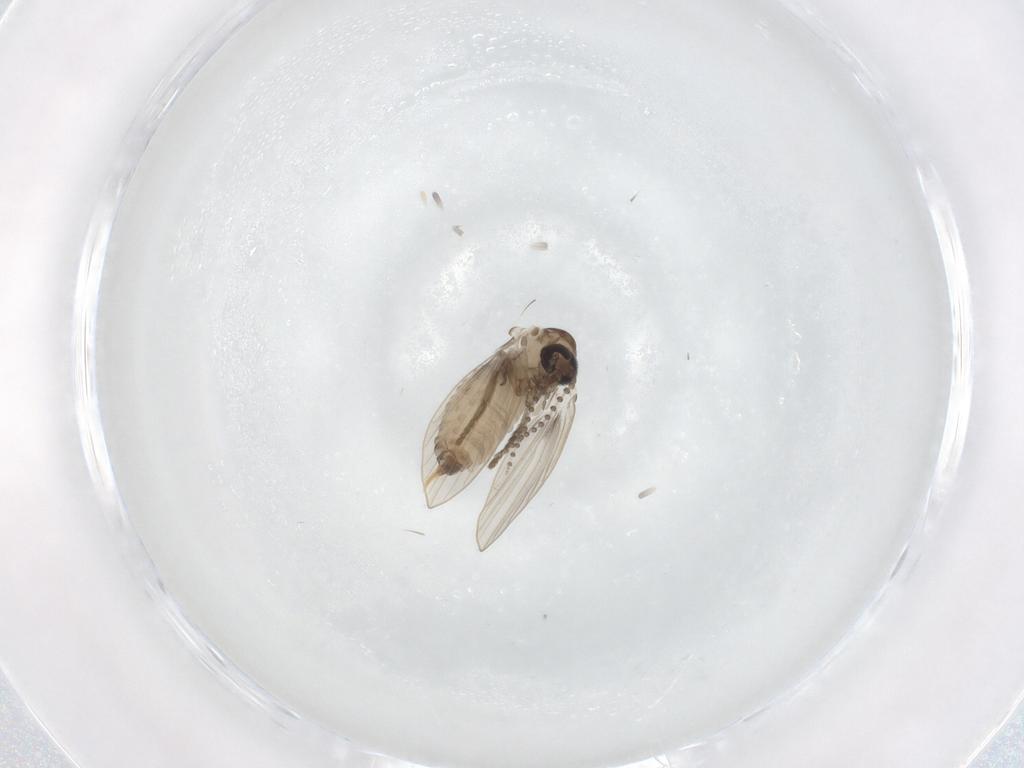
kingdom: Animalia
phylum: Arthropoda
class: Insecta
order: Diptera
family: Psychodidae
